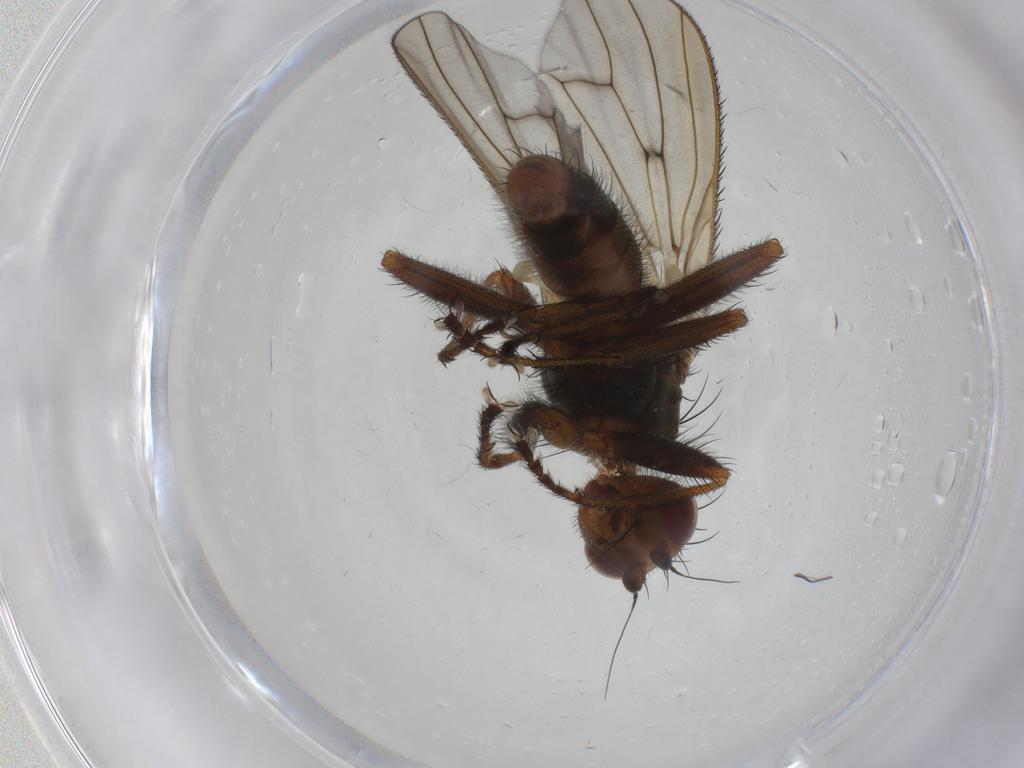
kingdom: Animalia
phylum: Arthropoda
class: Insecta
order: Diptera
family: Heleomyzidae
